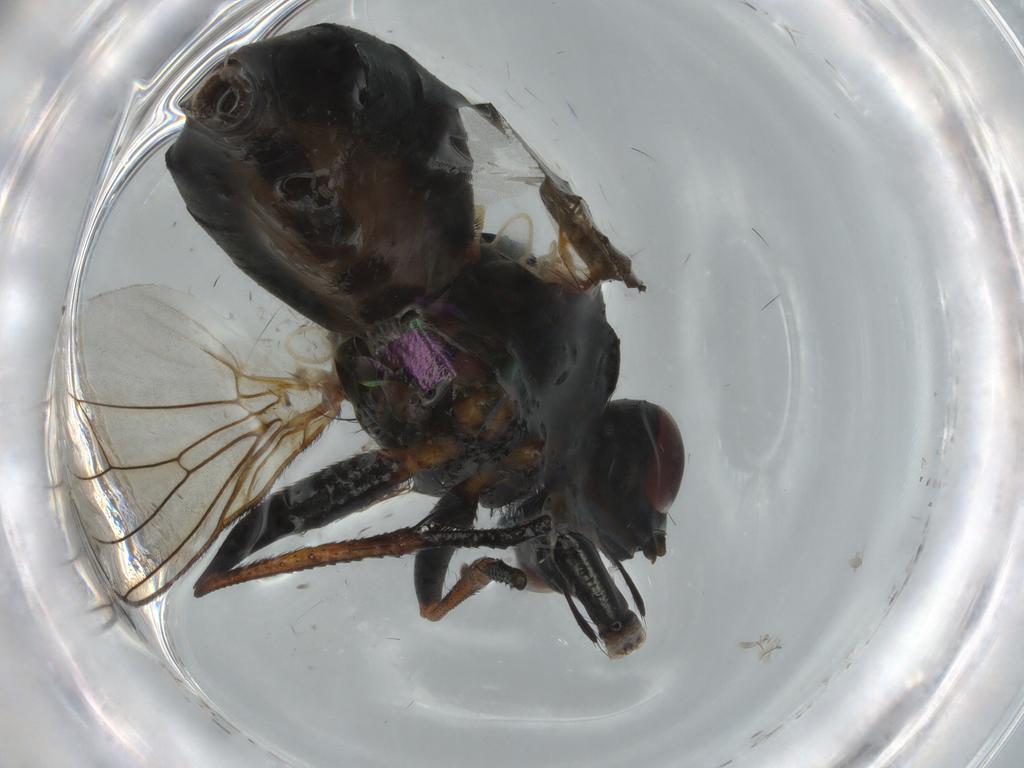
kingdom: Animalia
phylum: Arthropoda
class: Insecta
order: Diptera
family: Muscidae
